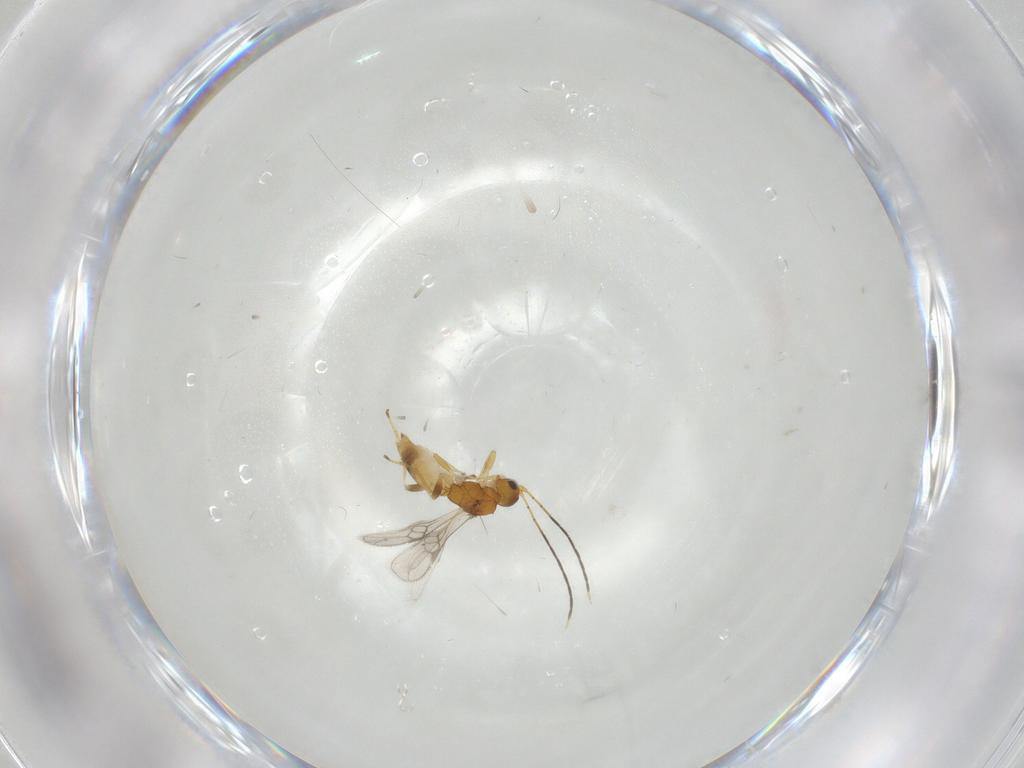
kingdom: Animalia
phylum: Arthropoda
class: Insecta
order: Hymenoptera
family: Braconidae
